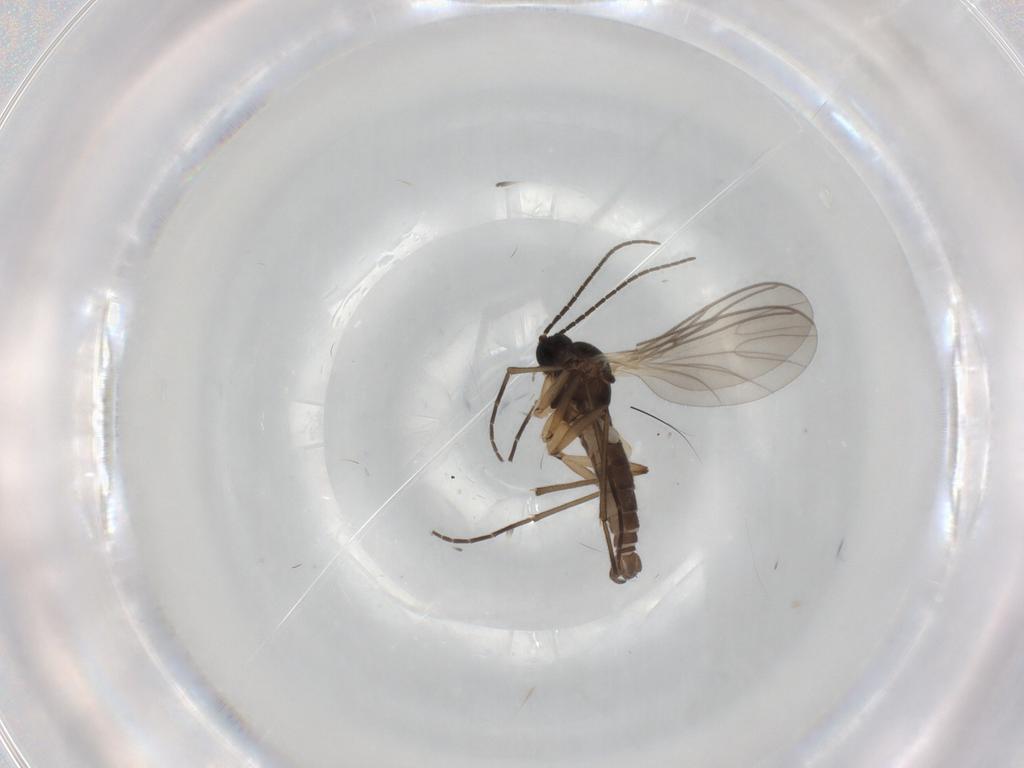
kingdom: Animalia
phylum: Arthropoda
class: Insecta
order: Diptera
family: Sciaridae
